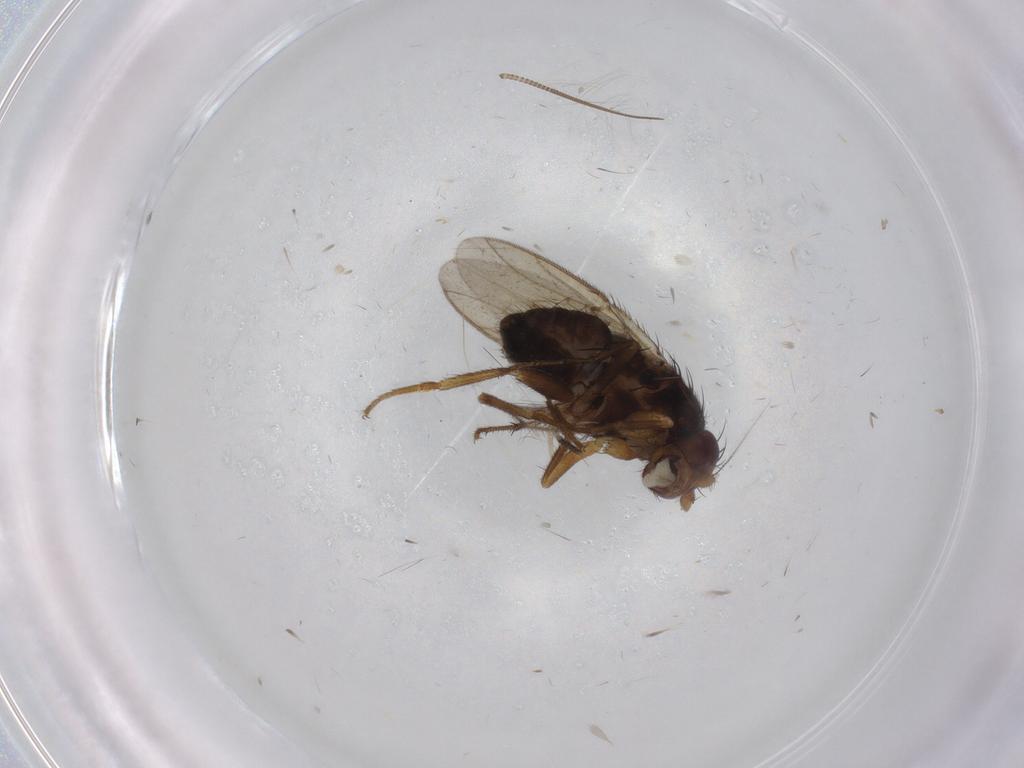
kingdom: Animalia
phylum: Arthropoda
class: Insecta
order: Diptera
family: Sphaeroceridae
